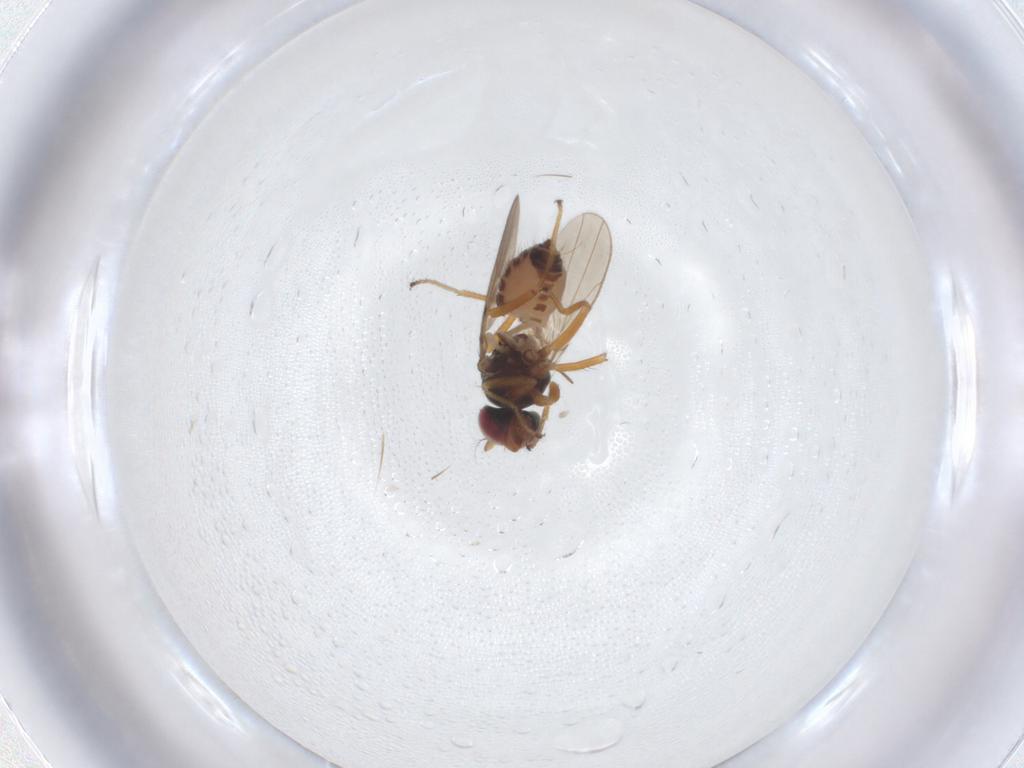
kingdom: Animalia
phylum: Arthropoda
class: Insecta
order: Diptera
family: Ephydridae
